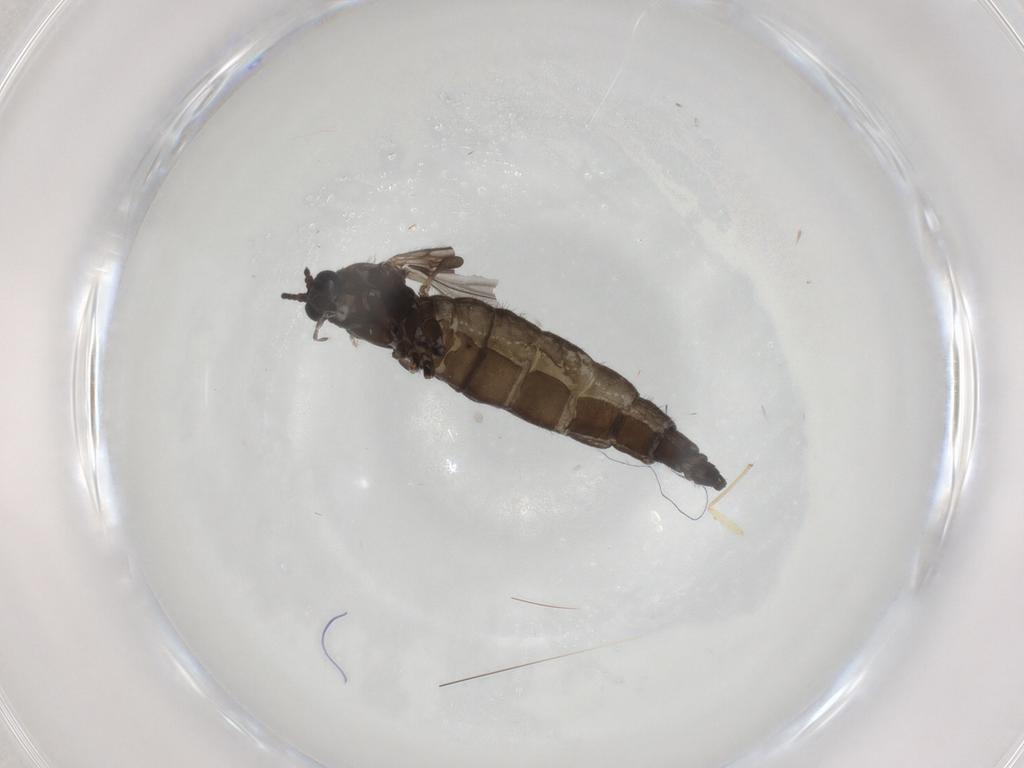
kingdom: Animalia
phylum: Arthropoda
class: Insecta
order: Diptera
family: Sciaridae
